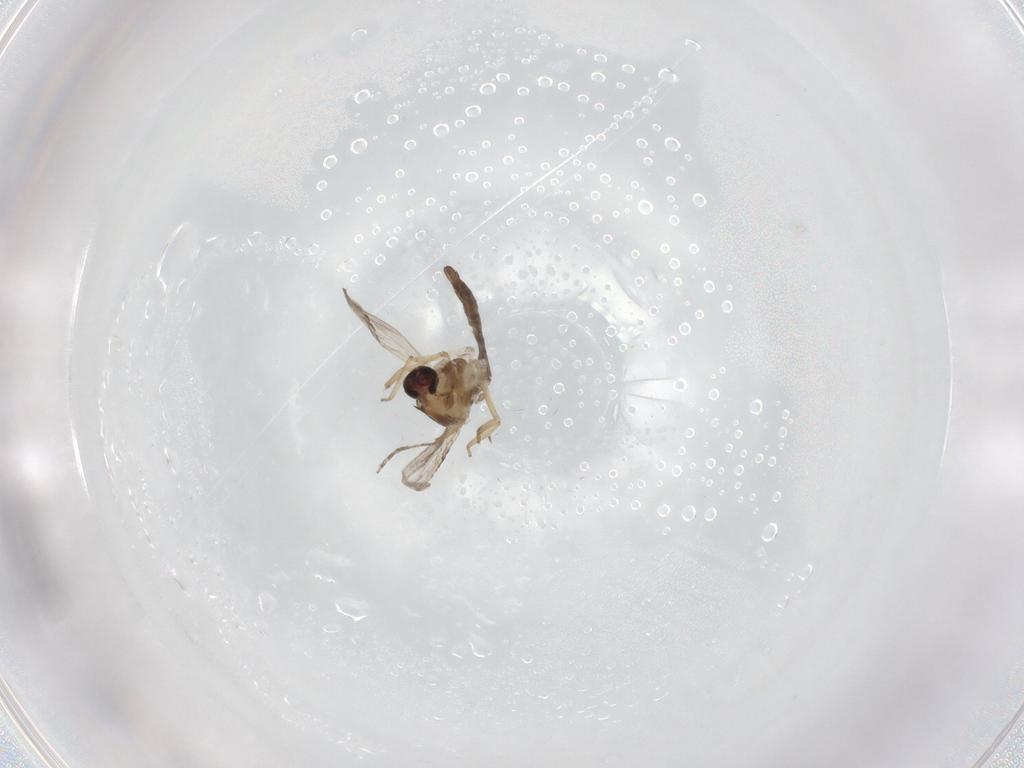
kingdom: Animalia
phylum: Arthropoda
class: Insecta
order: Diptera
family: Ceratopogonidae
